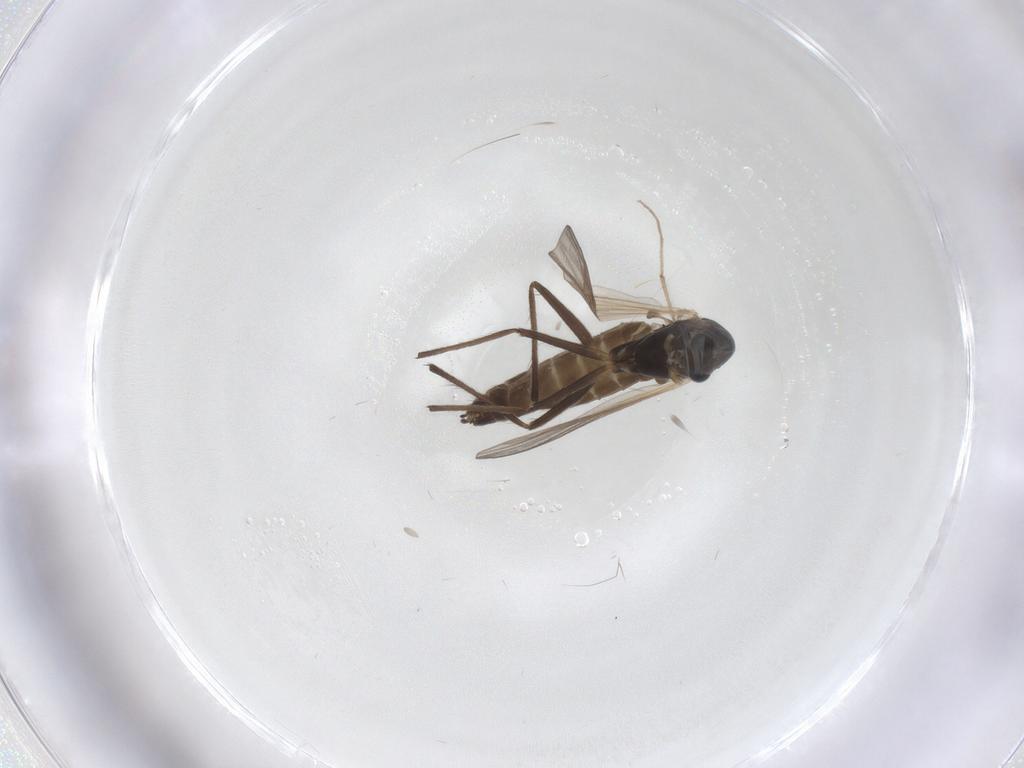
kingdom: Animalia
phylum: Arthropoda
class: Insecta
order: Diptera
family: Chironomidae
